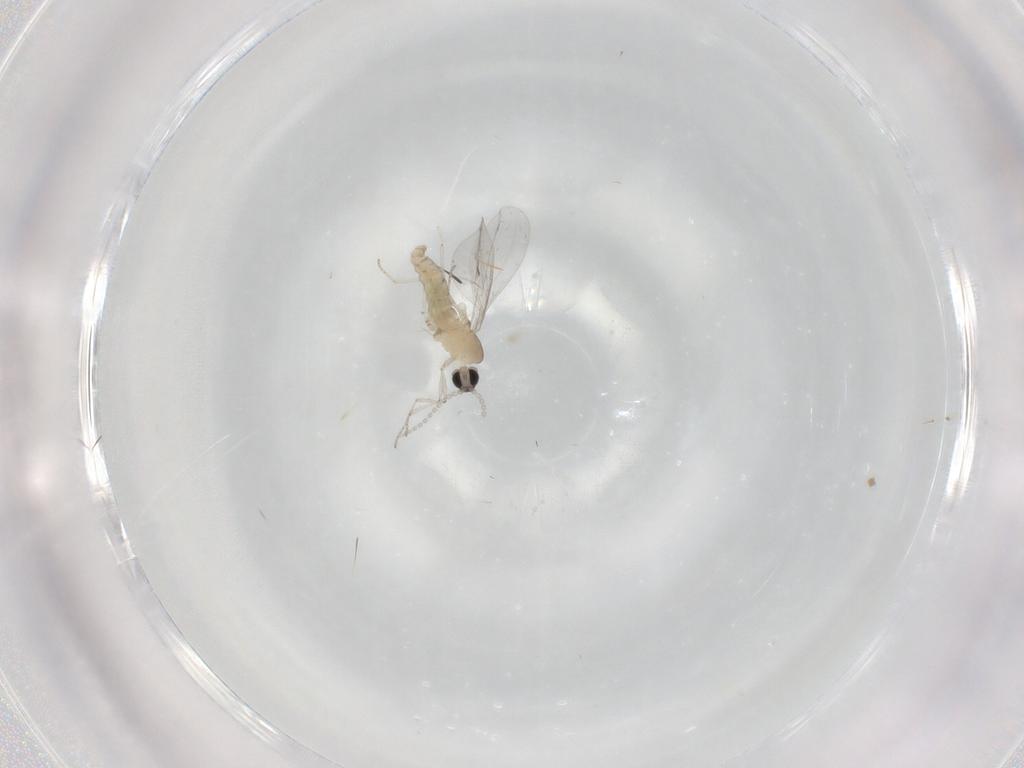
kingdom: Animalia
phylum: Arthropoda
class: Insecta
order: Diptera
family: Cecidomyiidae
